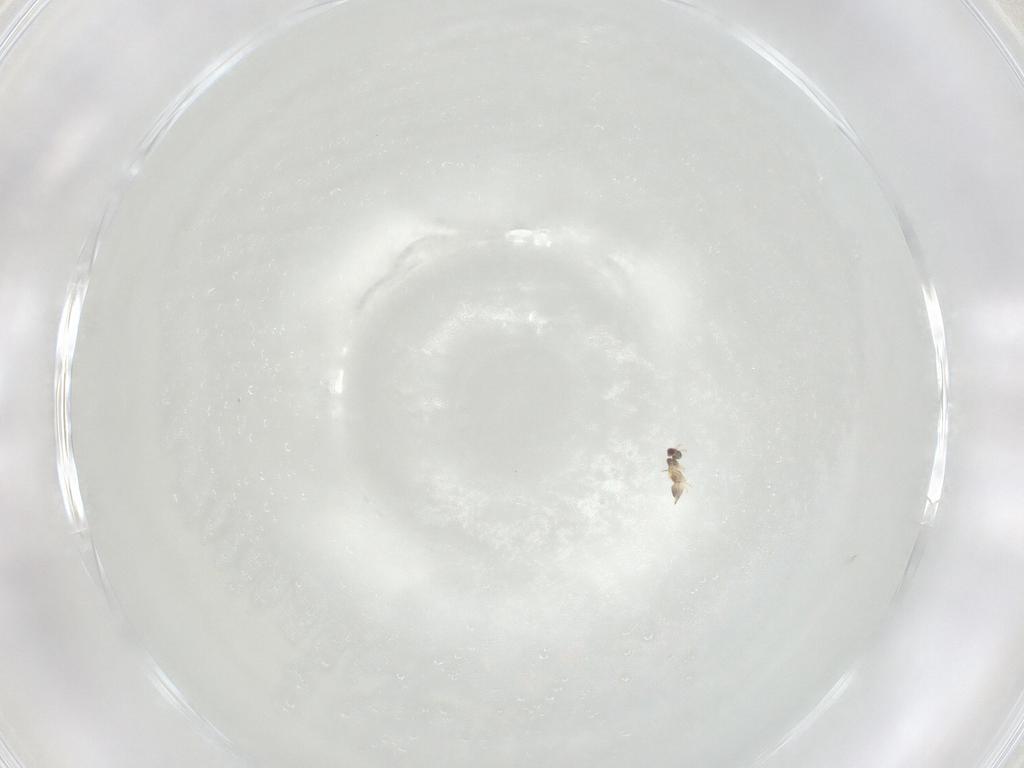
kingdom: Animalia
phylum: Arthropoda
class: Insecta
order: Hymenoptera
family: Mymaridae
